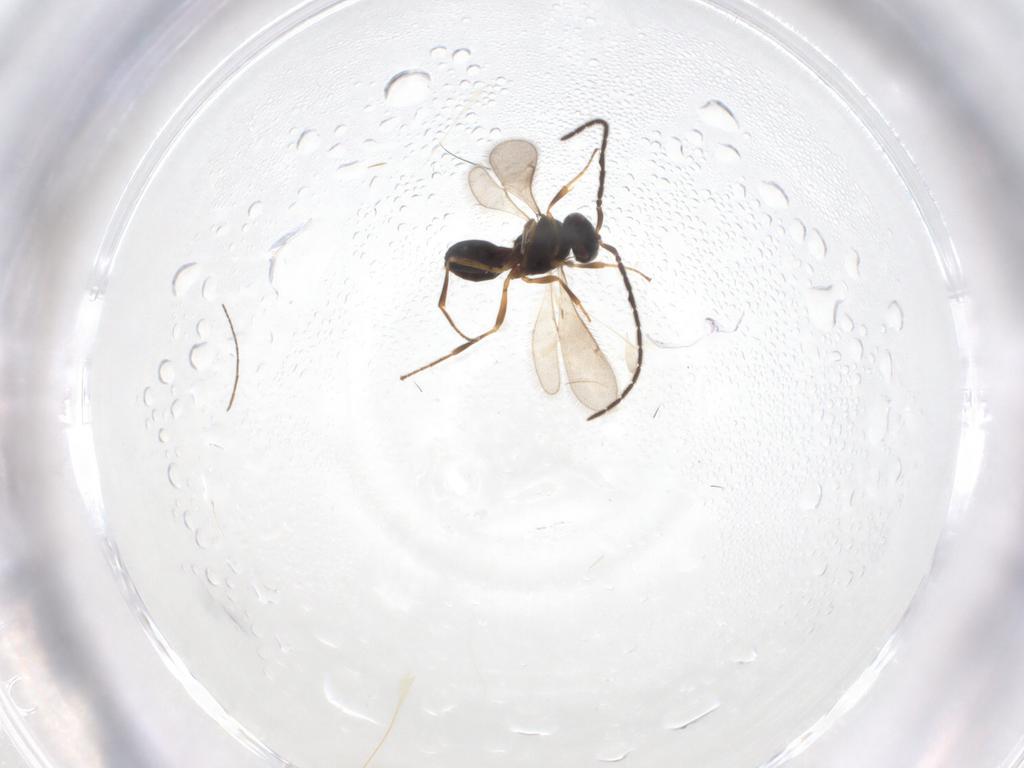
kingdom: Animalia
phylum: Arthropoda
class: Insecta
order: Hymenoptera
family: Scelionidae
